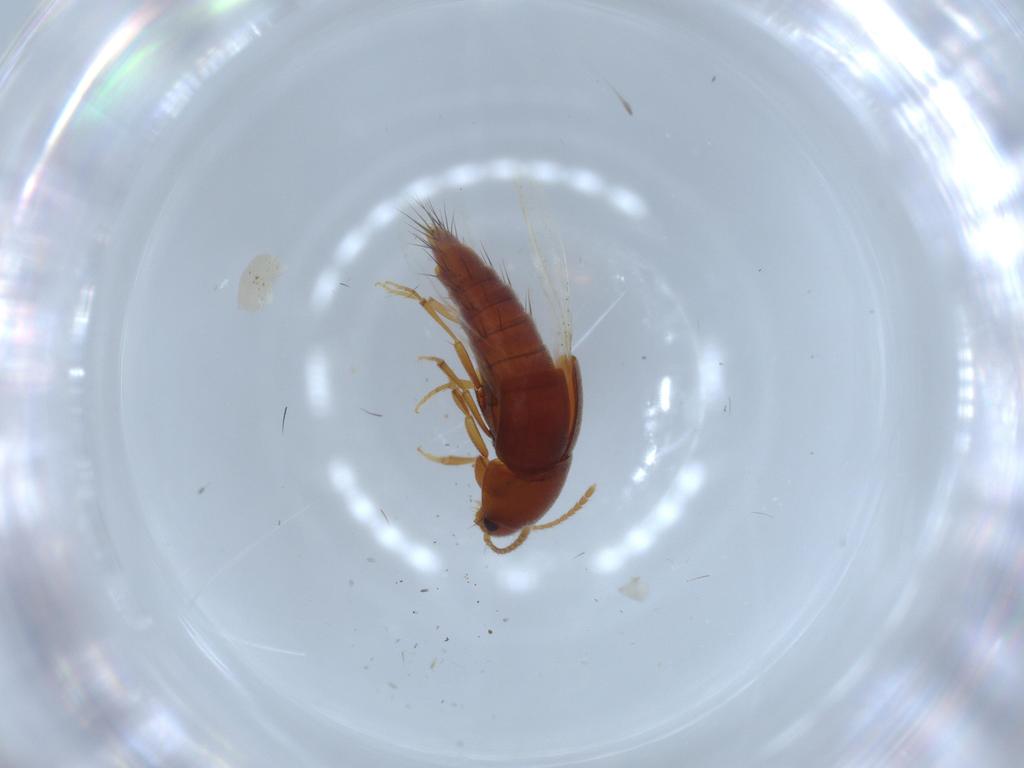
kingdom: Animalia
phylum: Arthropoda
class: Insecta
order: Coleoptera
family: Staphylinidae
